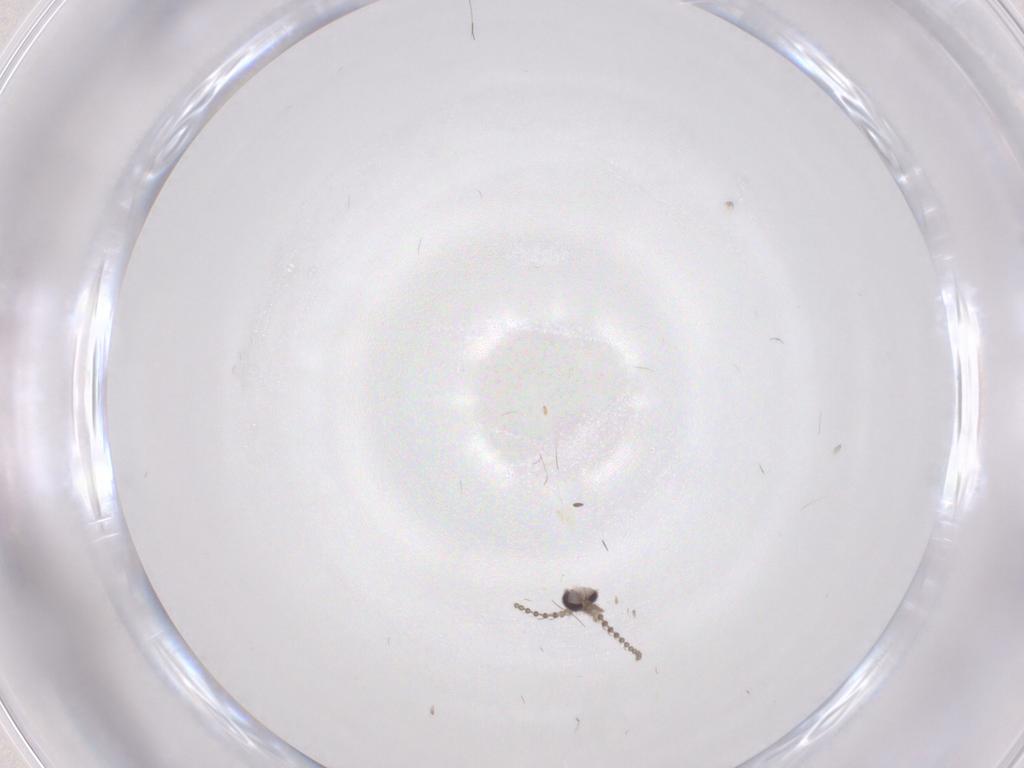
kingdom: Animalia
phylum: Arthropoda
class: Insecta
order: Diptera
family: Psychodidae
